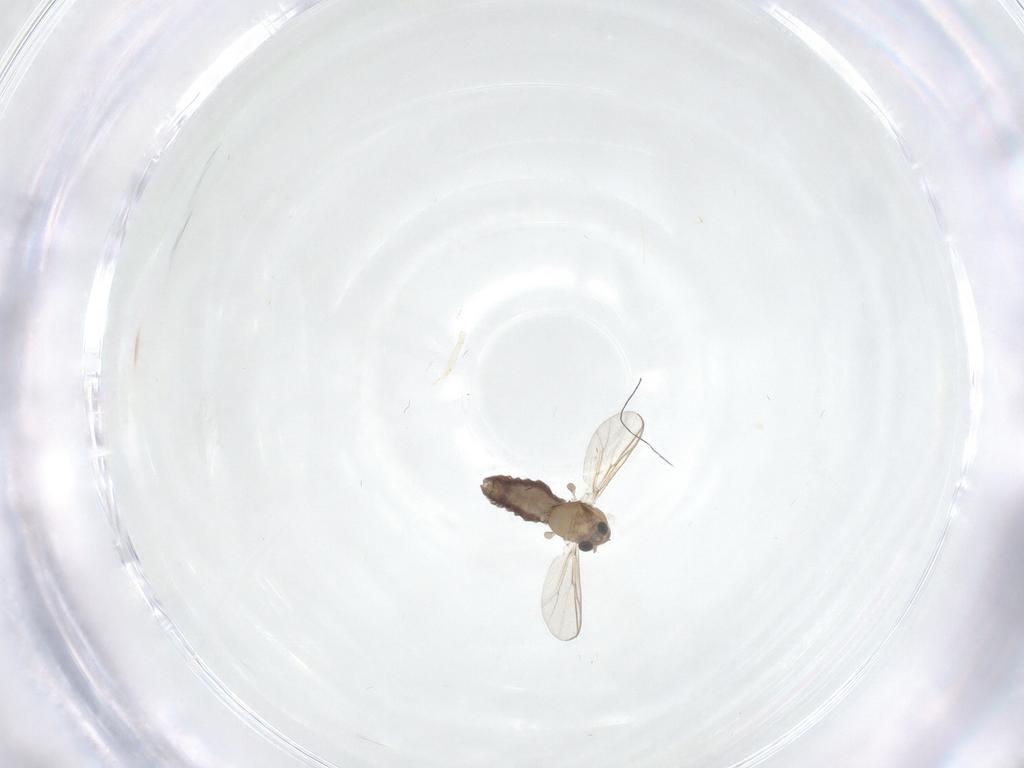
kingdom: Animalia
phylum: Arthropoda
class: Insecta
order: Diptera
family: Chironomidae
